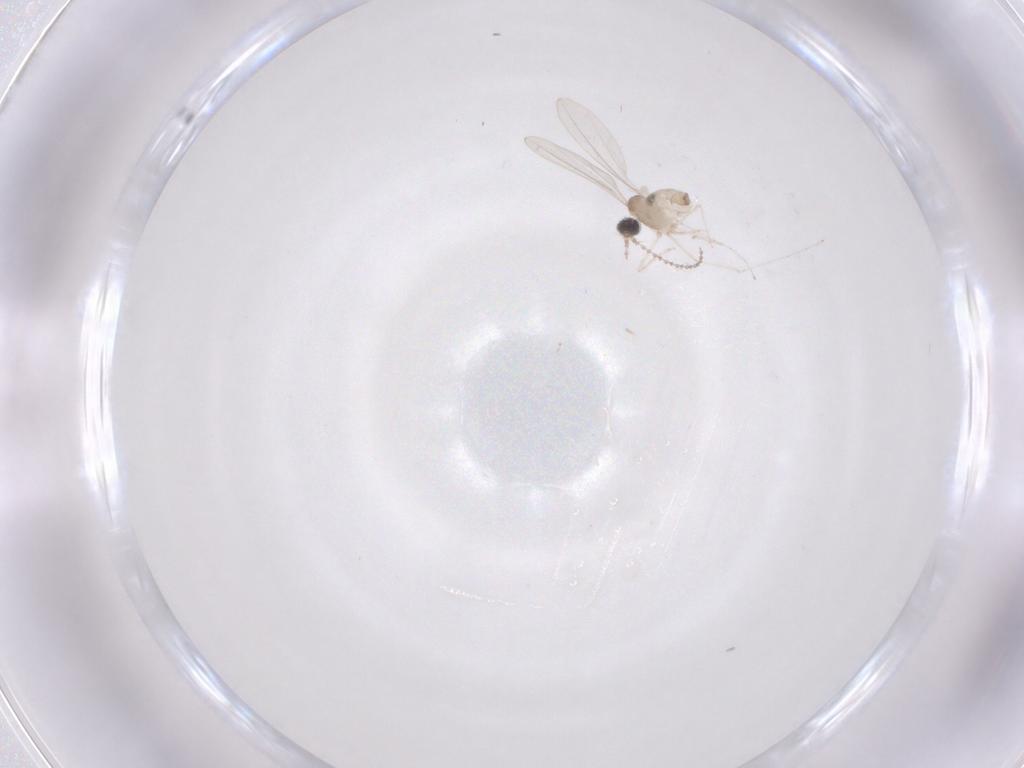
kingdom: Animalia
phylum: Arthropoda
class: Insecta
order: Diptera
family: Cecidomyiidae
